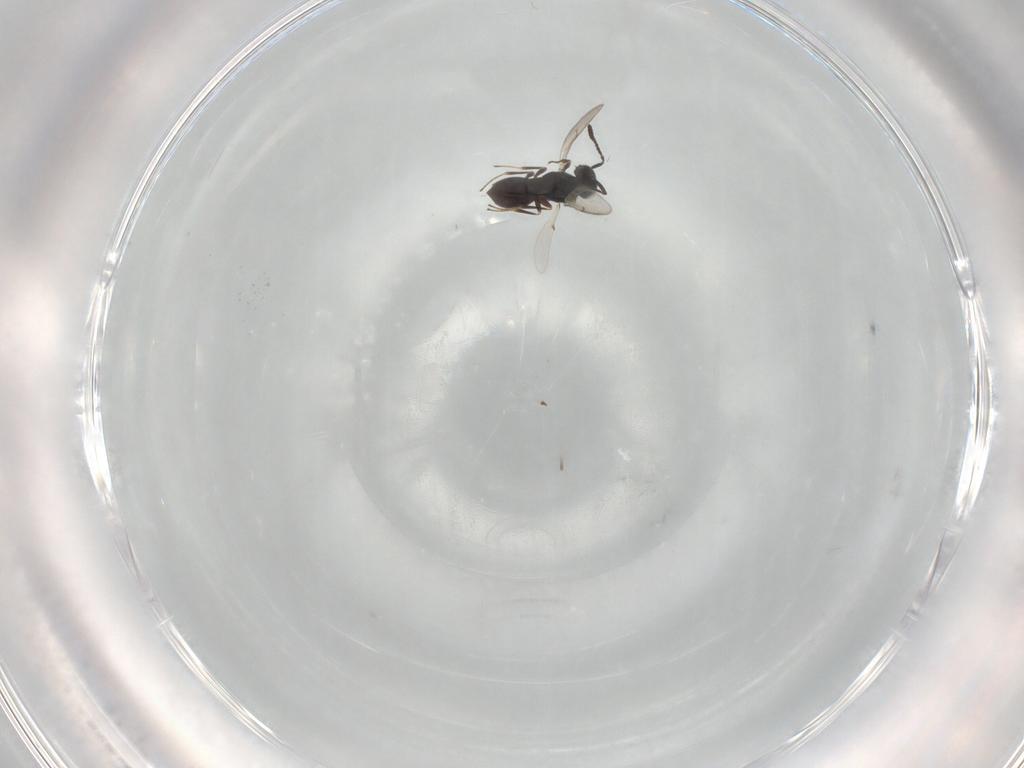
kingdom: Animalia
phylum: Arthropoda
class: Insecta
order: Hymenoptera
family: Scelionidae
